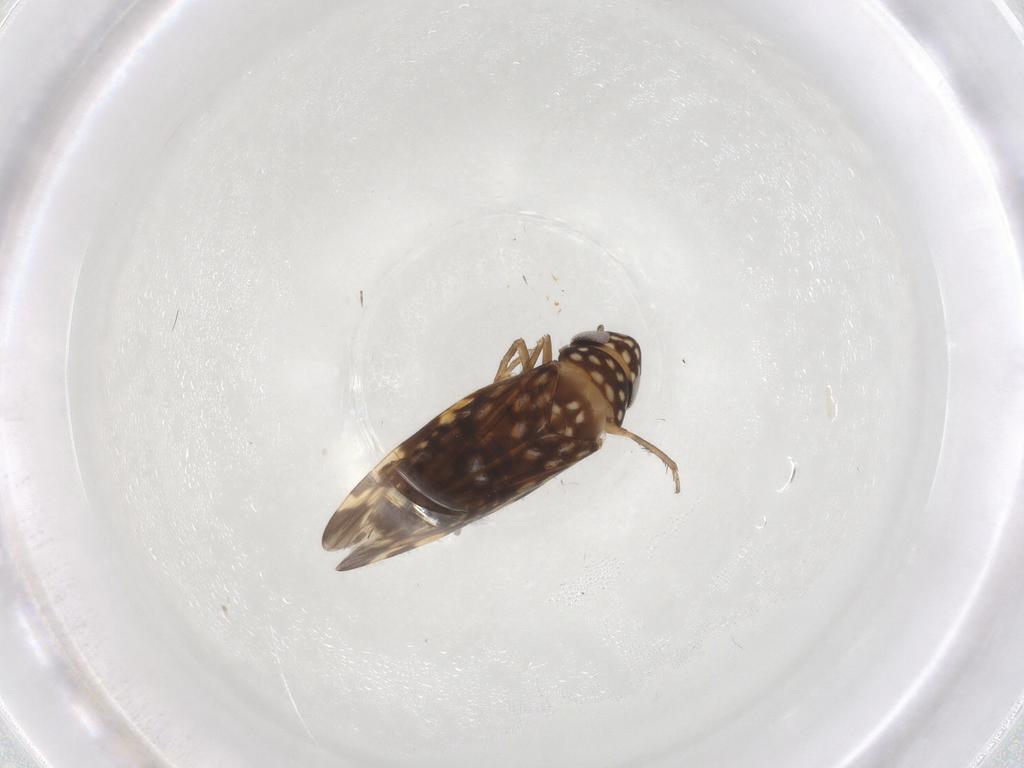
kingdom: Animalia
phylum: Arthropoda
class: Insecta
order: Hemiptera
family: Cicadellidae
